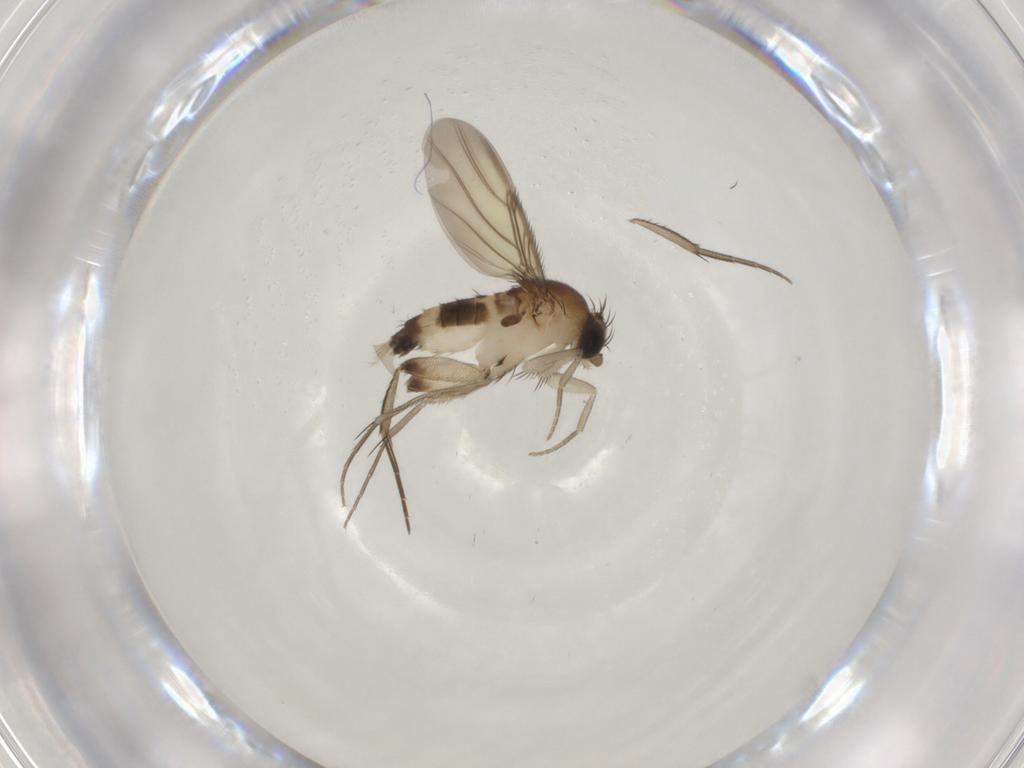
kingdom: Animalia
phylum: Arthropoda
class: Insecta
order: Diptera
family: Phoridae
